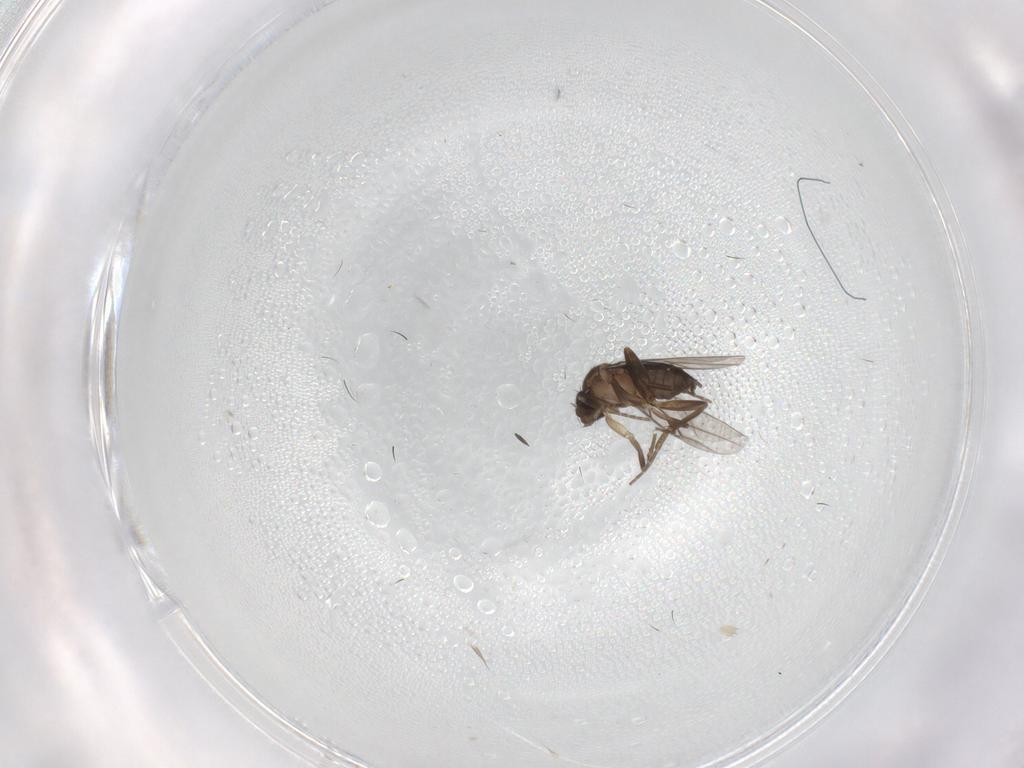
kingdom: Animalia
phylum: Arthropoda
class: Insecta
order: Diptera
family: Phoridae
